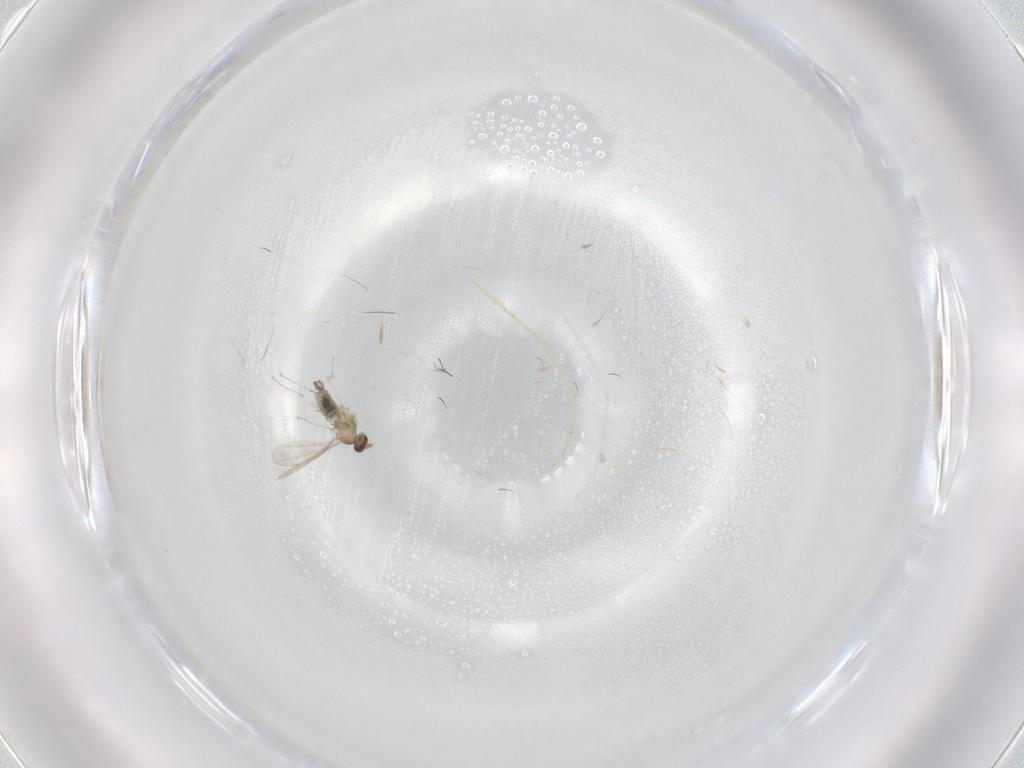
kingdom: Animalia
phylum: Arthropoda
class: Insecta
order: Diptera
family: Chironomidae
